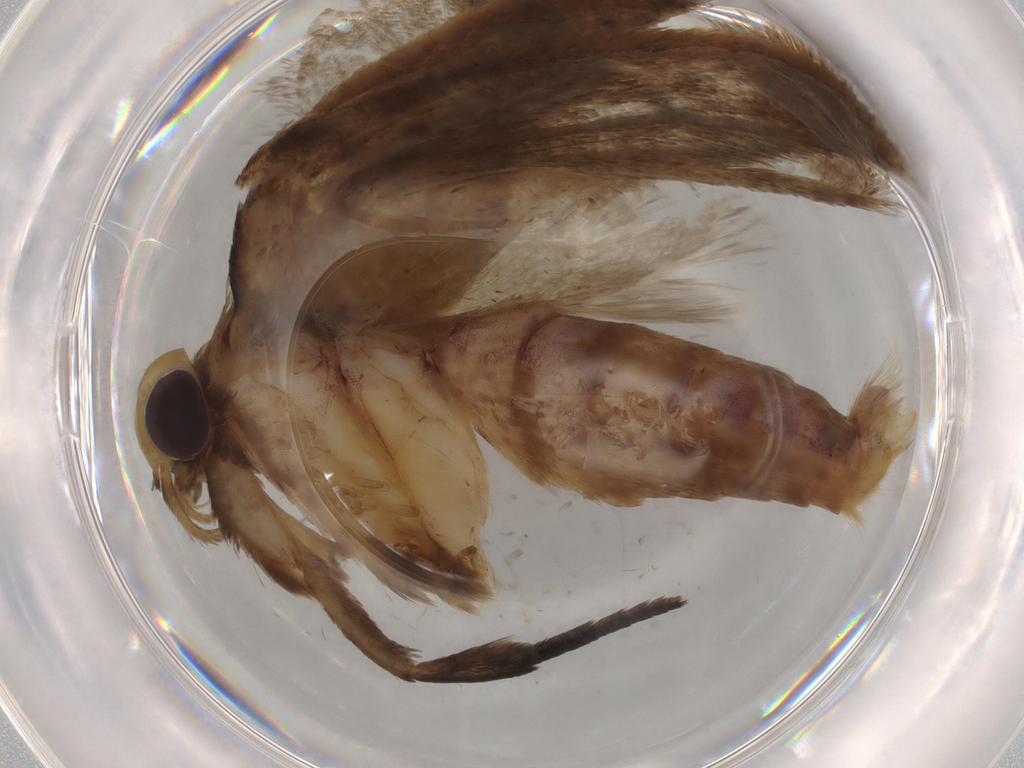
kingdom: Animalia
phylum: Arthropoda
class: Insecta
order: Lepidoptera
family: Oecophoridae
